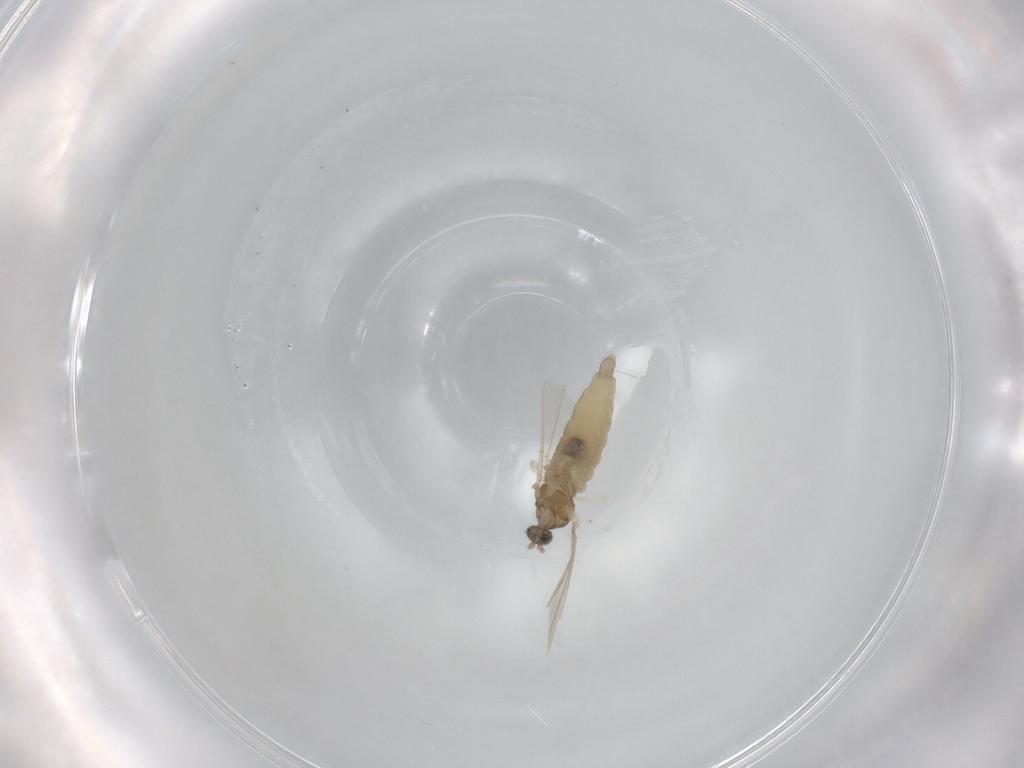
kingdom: Animalia
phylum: Arthropoda
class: Insecta
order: Diptera
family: Cecidomyiidae
